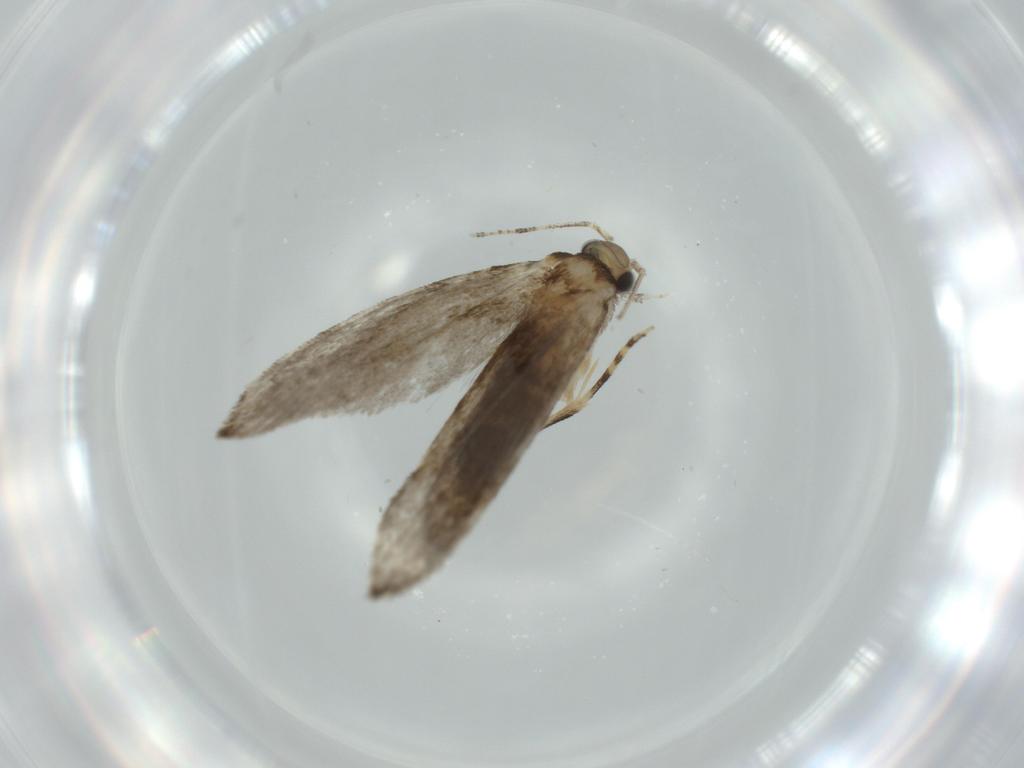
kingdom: Animalia
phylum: Arthropoda
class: Insecta
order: Lepidoptera
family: Tineidae
